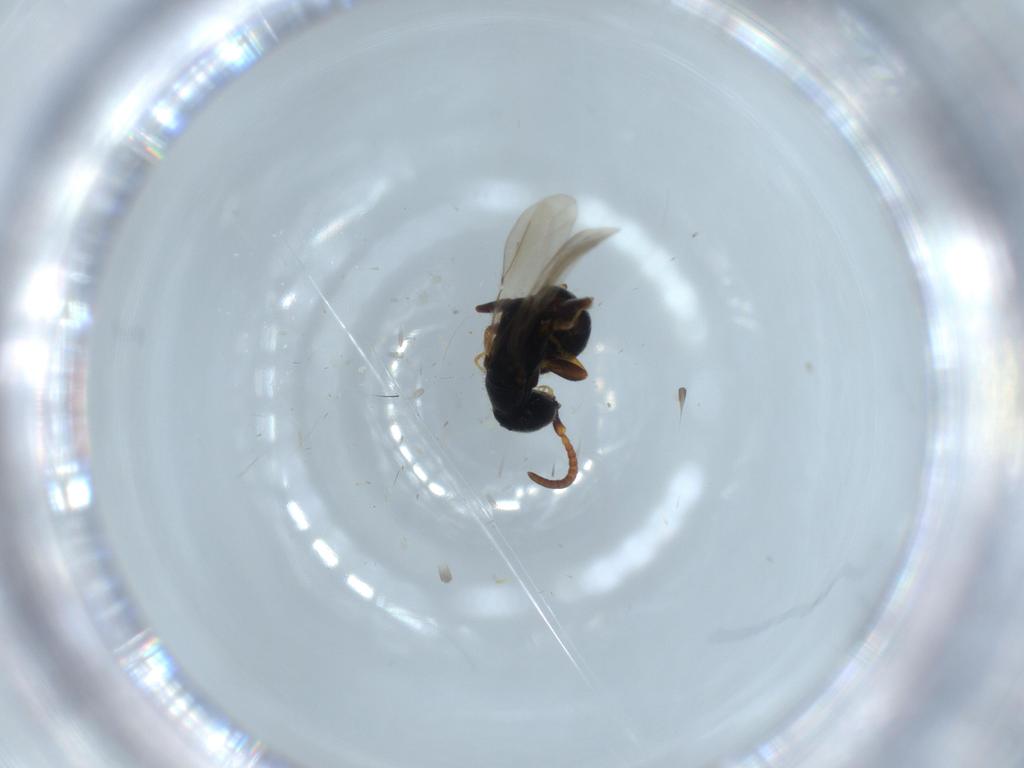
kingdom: Animalia
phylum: Arthropoda
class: Insecta
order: Hymenoptera
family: Bethylidae
